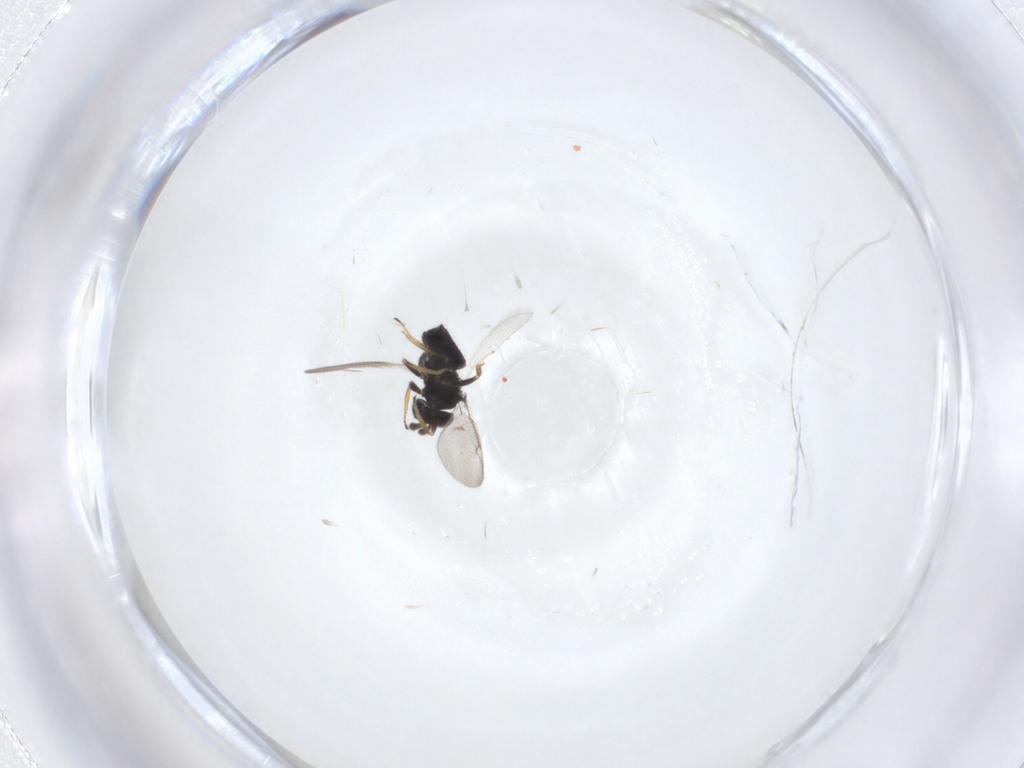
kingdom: Animalia
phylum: Arthropoda
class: Insecta
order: Hymenoptera
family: Eulophidae
